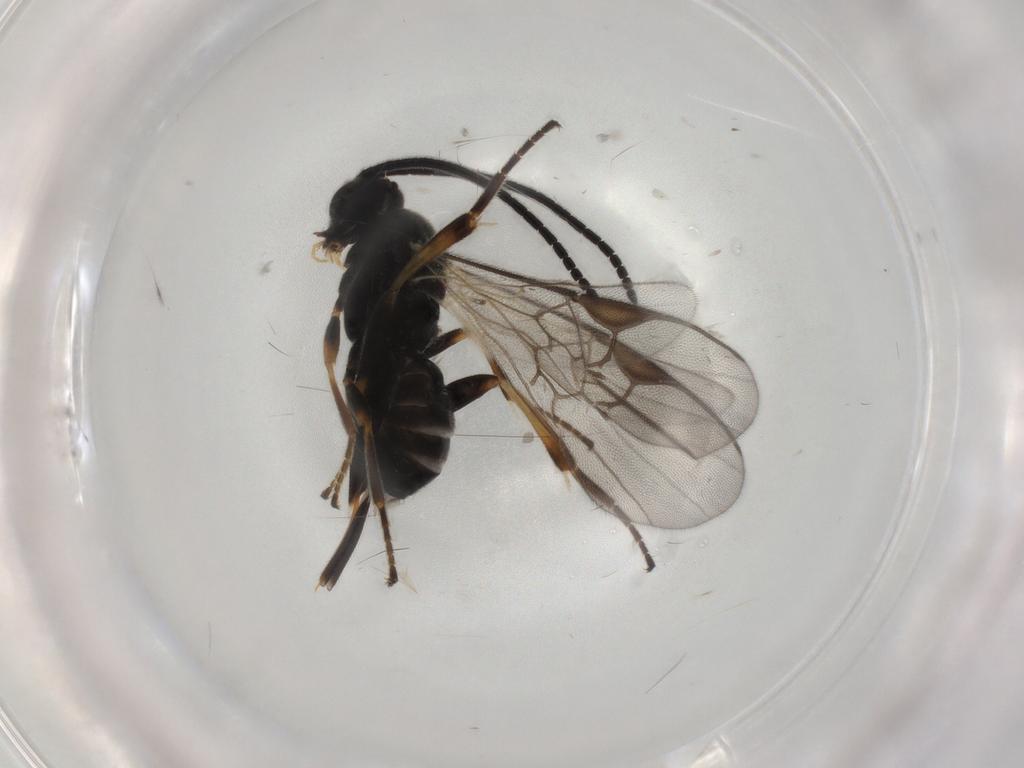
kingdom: Animalia
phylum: Arthropoda
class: Insecta
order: Hymenoptera
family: Braconidae
